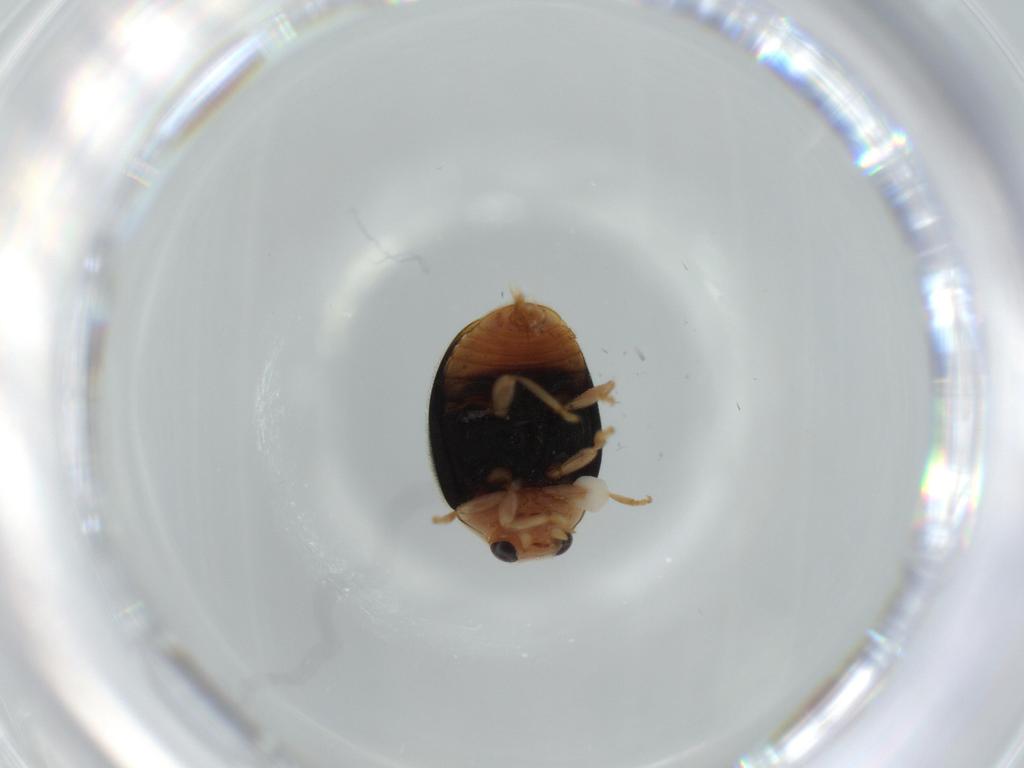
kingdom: Animalia
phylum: Arthropoda
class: Insecta
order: Coleoptera
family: Coccinellidae
